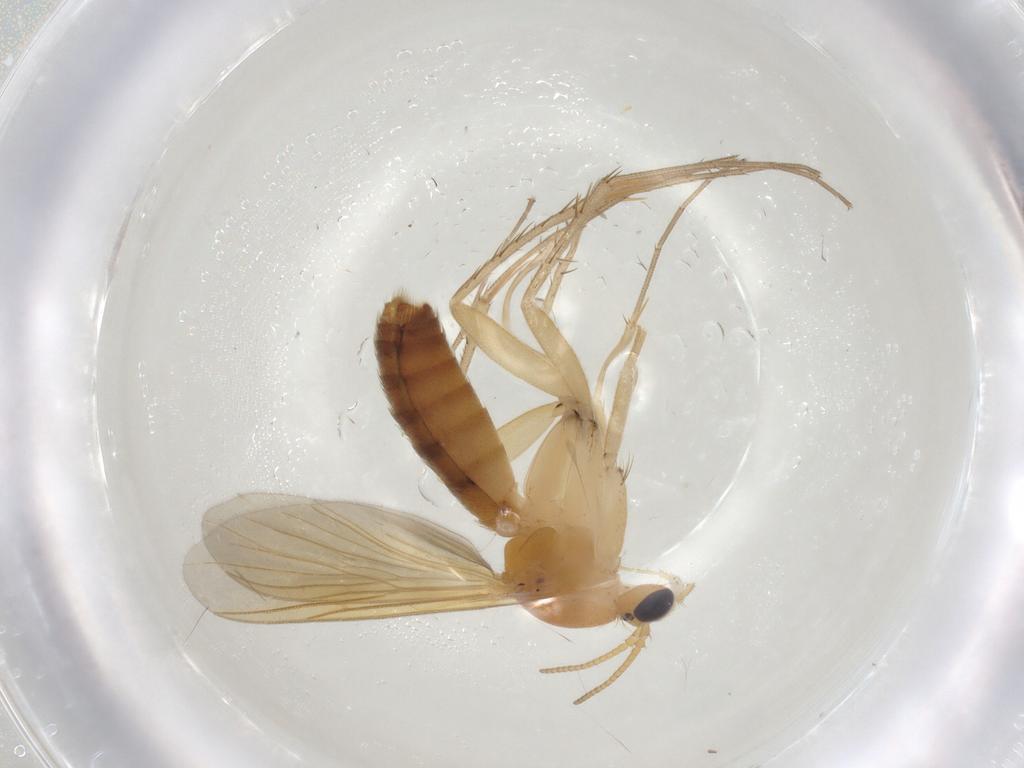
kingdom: Animalia
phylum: Arthropoda
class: Insecta
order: Diptera
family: Mycetophilidae
